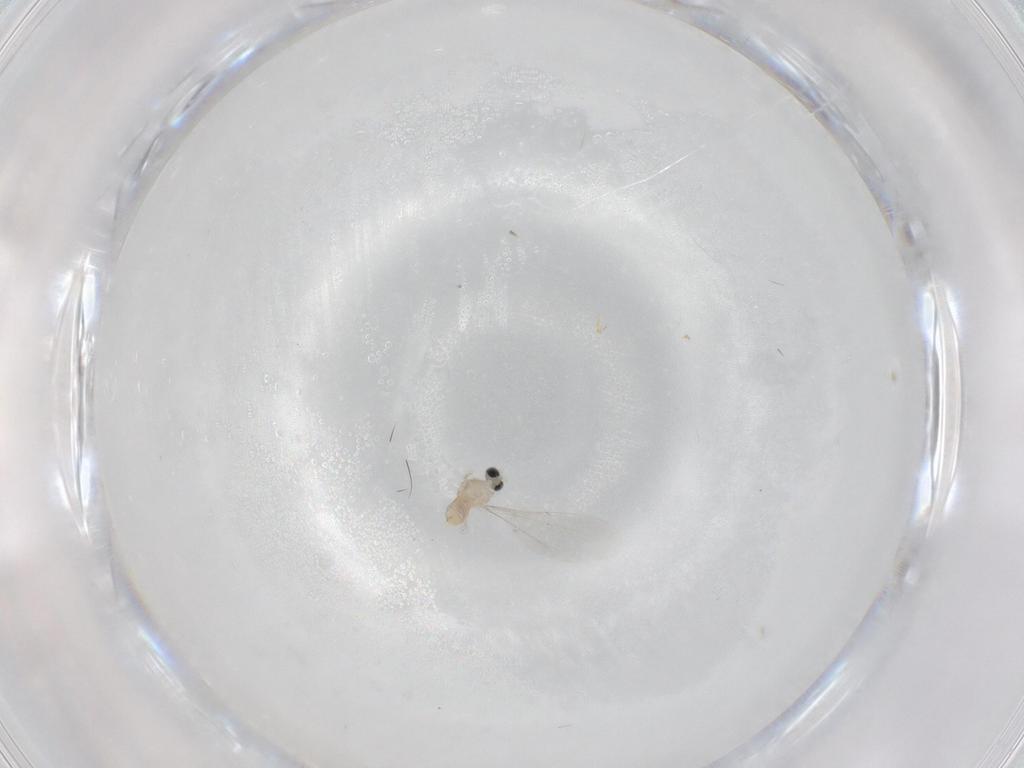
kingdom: Animalia
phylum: Arthropoda
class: Insecta
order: Diptera
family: Cecidomyiidae
